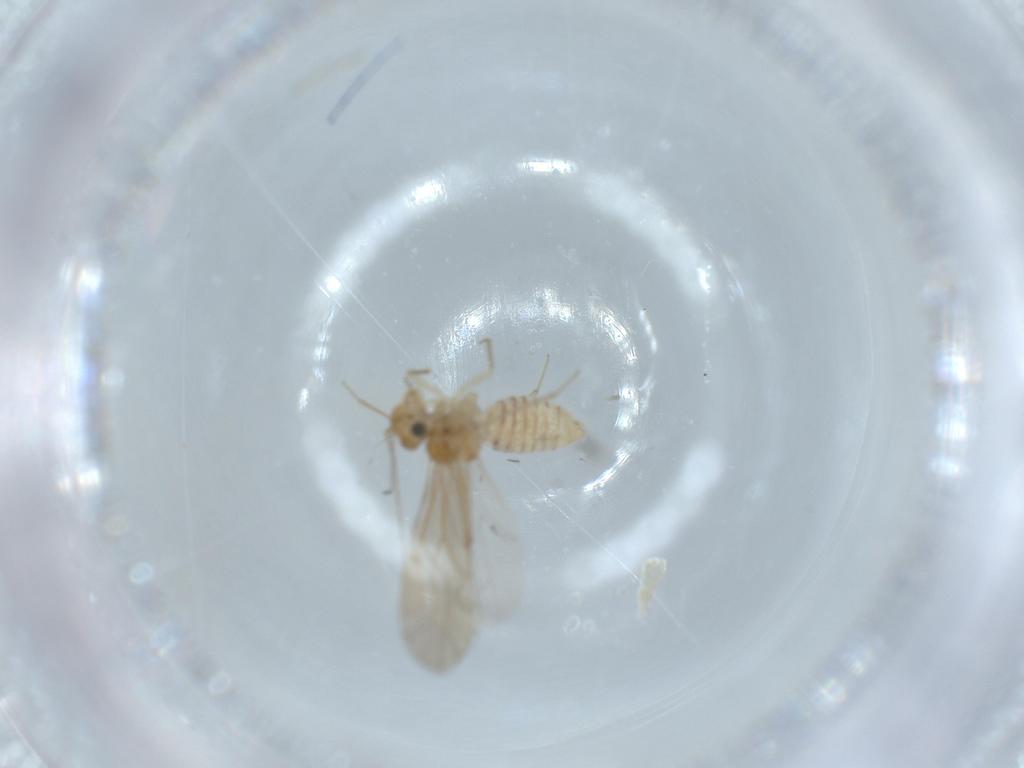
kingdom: Animalia
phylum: Arthropoda
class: Insecta
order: Psocodea
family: Lachesillidae
